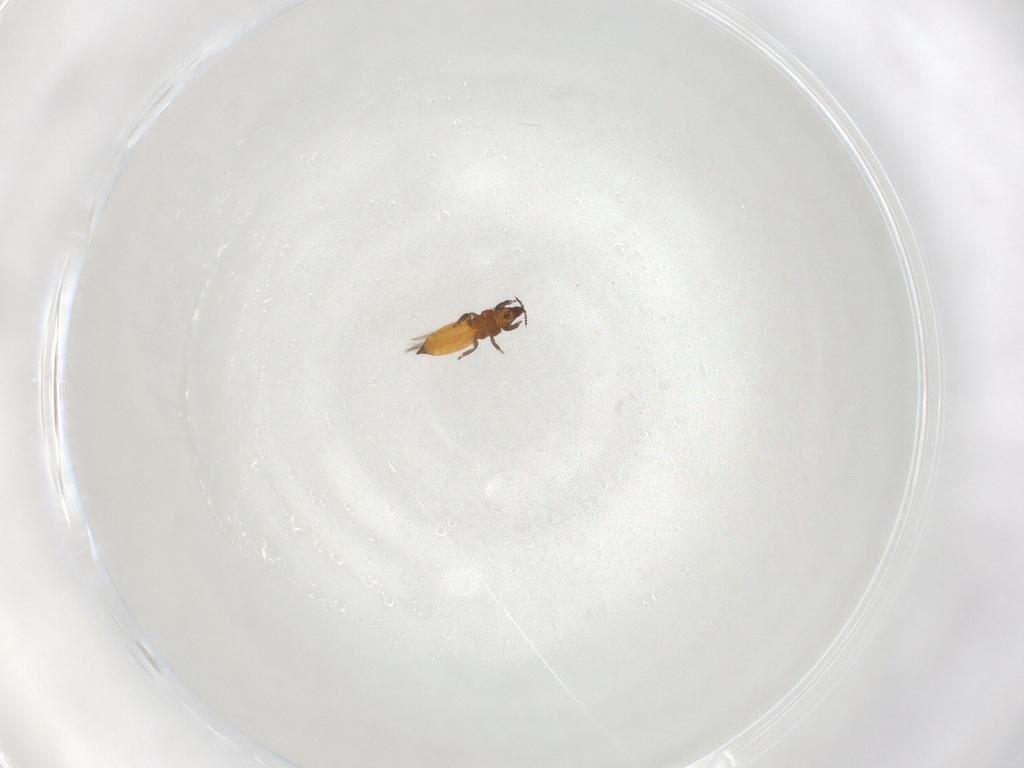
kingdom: Animalia
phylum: Arthropoda
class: Insecta
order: Thysanoptera
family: Thripidae
